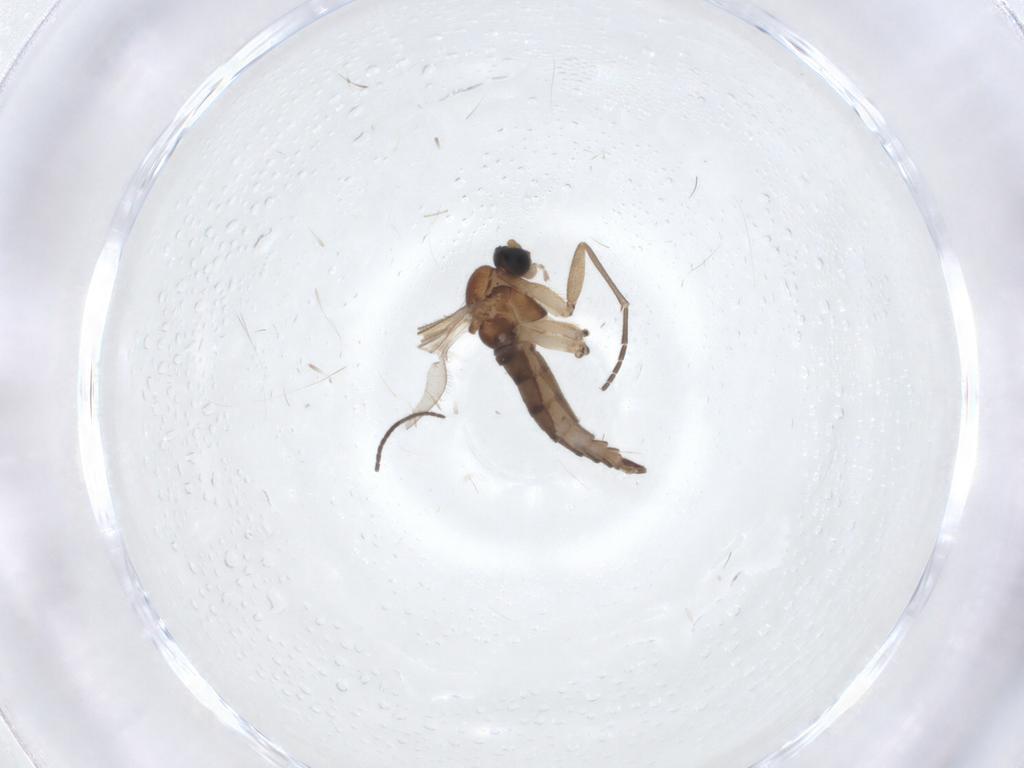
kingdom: Animalia
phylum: Arthropoda
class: Insecta
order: Diptera
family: Sciaridae
